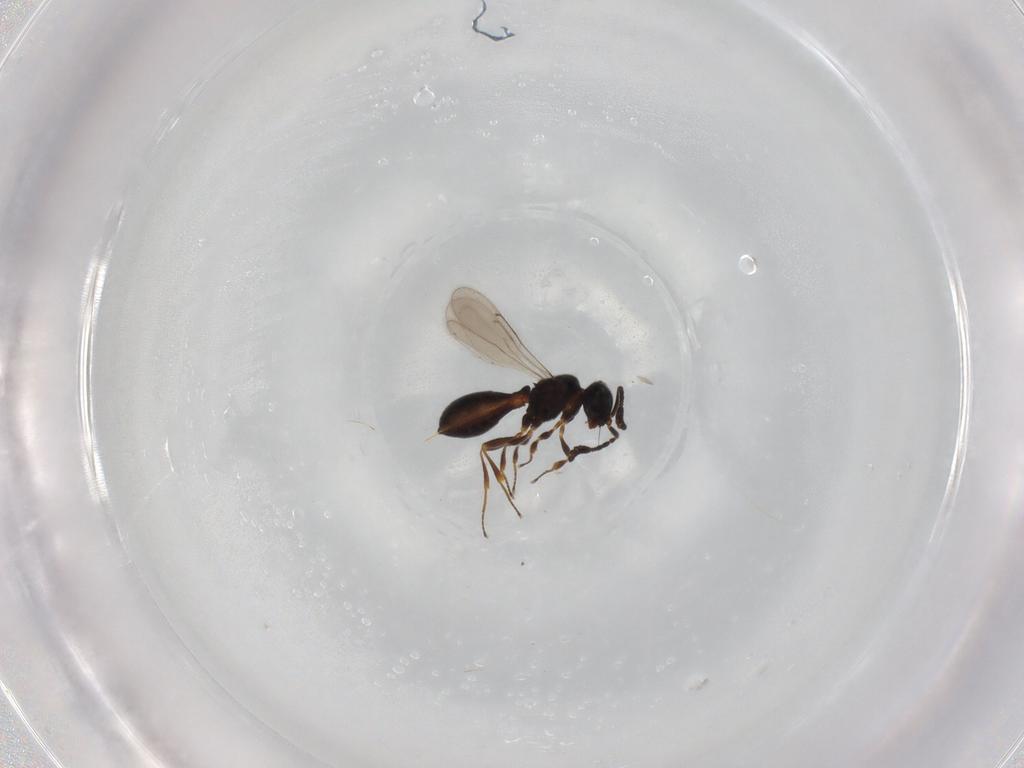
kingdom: Animalia
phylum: Arthropoda
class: Insecta
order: Hymenoptera
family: Scelionidae
